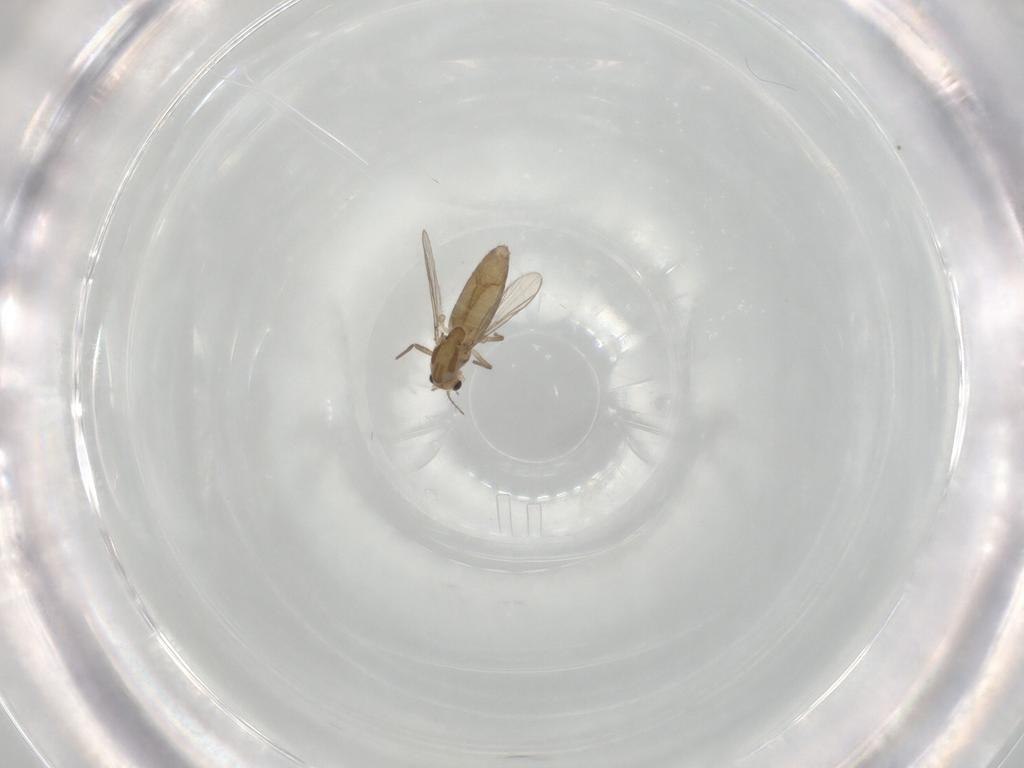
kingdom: Animalia
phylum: Arthropoda
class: Insecta
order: Diptera
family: Chironomidae
